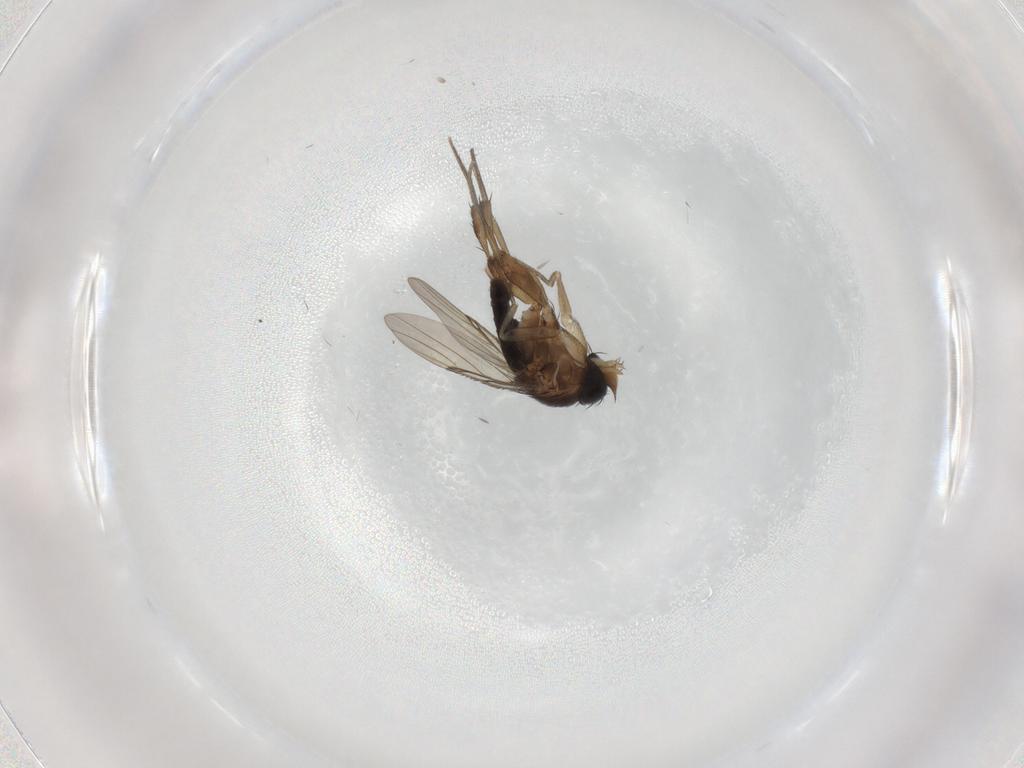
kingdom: Animalia
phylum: Arthropoda
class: Insecta
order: Diptera
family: Phoridae
